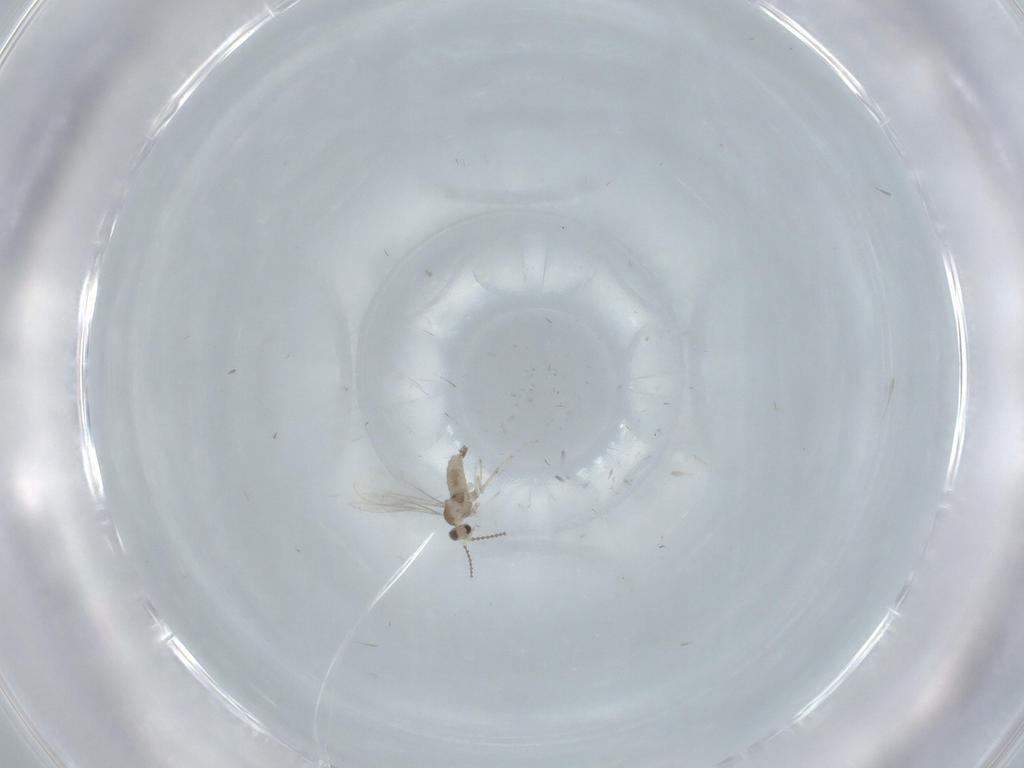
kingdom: Animalia
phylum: Arthropoda
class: Insecta
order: Diptera
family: Cecidomyiidae
